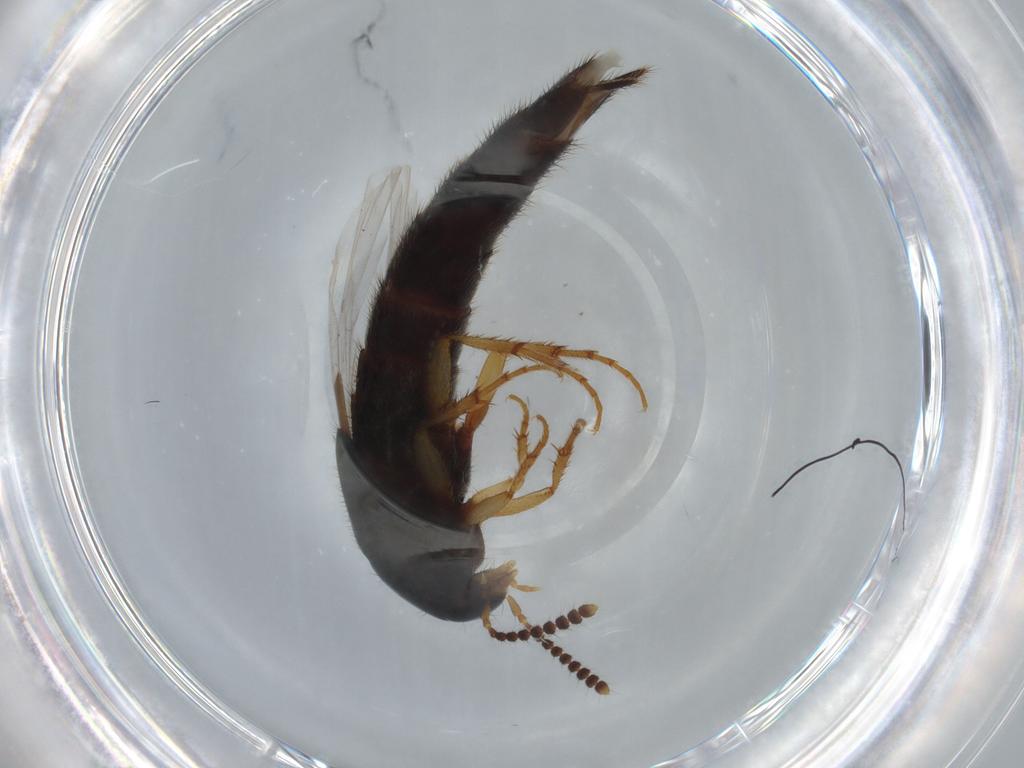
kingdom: Animalia
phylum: Arthropoda
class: Insecta
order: Coleoptera
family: Staphylinidae
